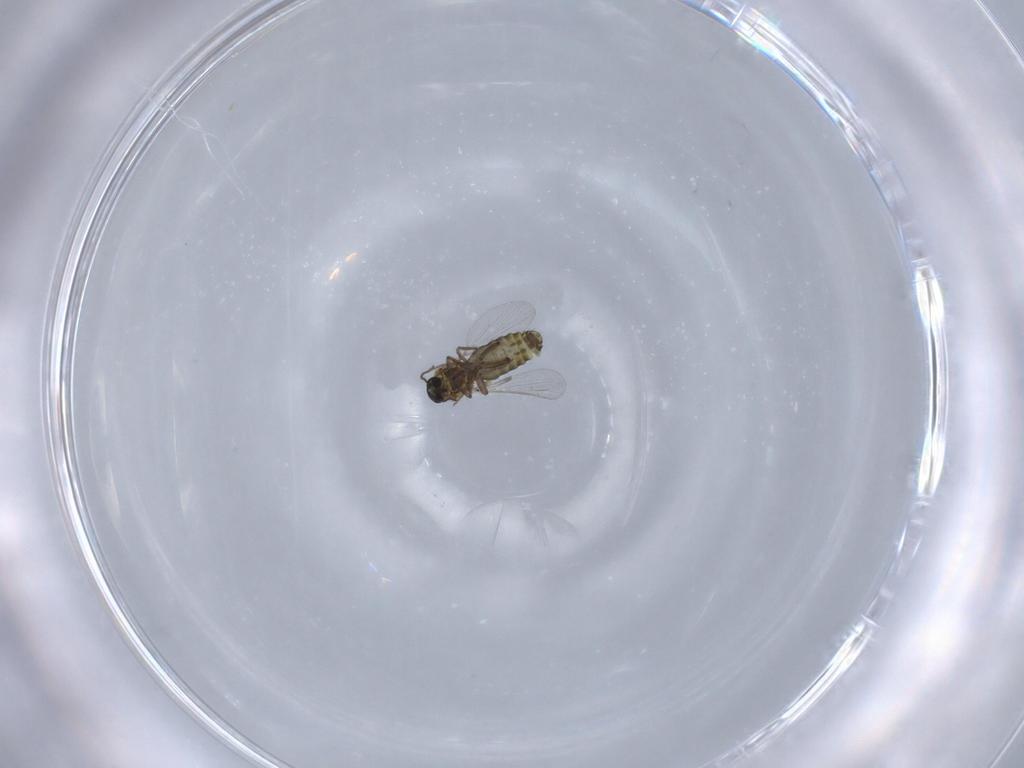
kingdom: Animalia
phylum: Arthropoda
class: Insecta
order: Diptera
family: Ceratopogonidae
